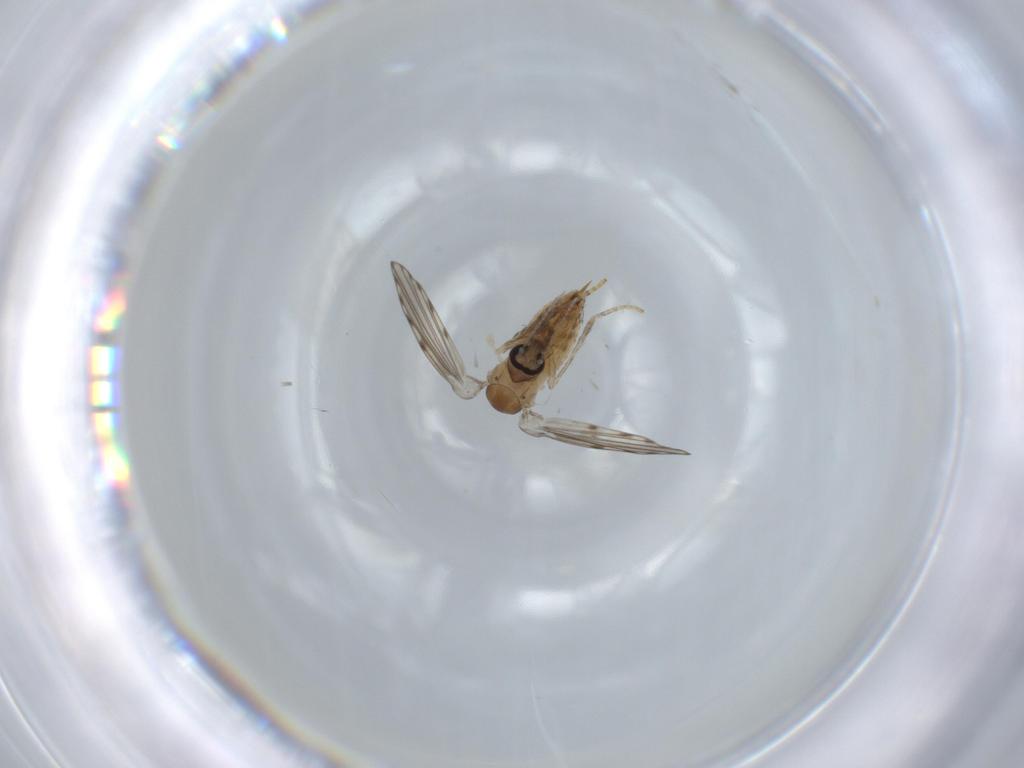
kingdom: Animalia
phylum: Arthropoda
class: Insecta
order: Diptera
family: Psychodidae
